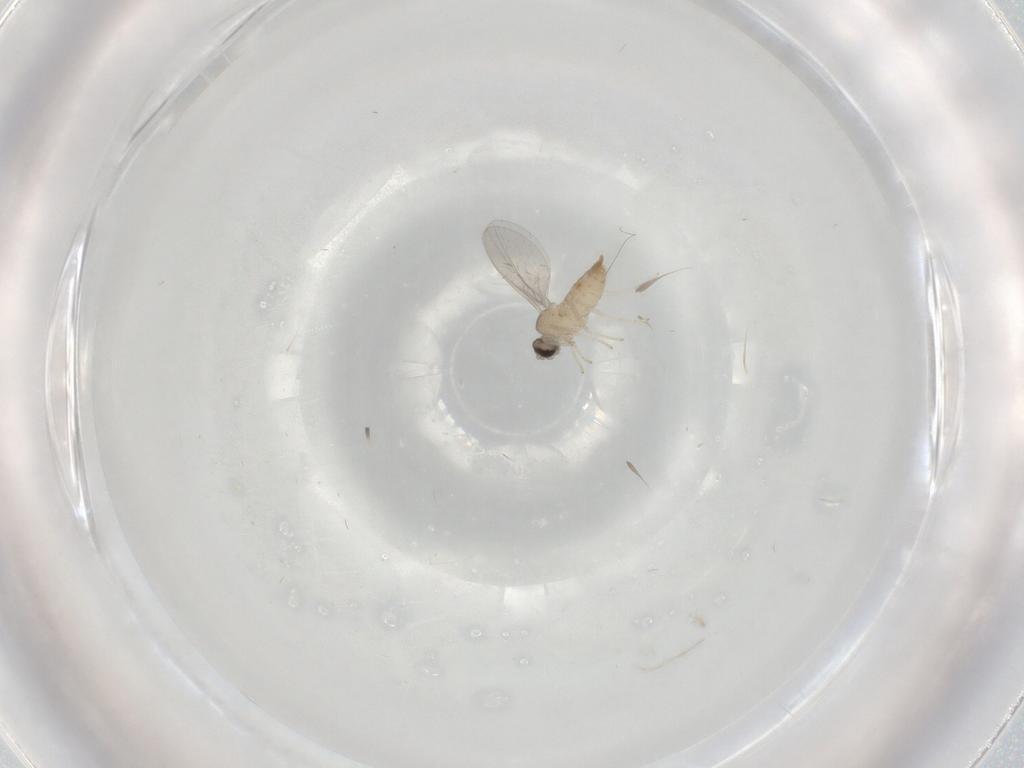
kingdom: Animalia
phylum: Arthropoda
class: Insecta
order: Diptera
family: Cecidomyiidae
